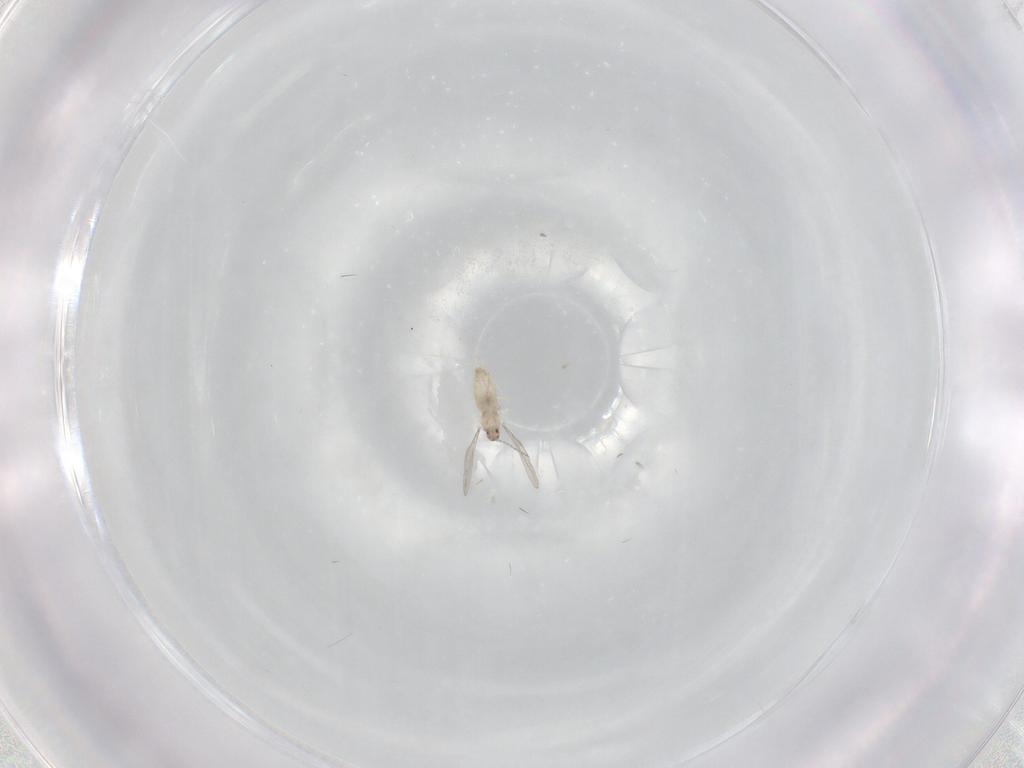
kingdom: Animalia
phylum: Arthropoda
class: Insecta
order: Diptera
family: Cecidomyiidae
